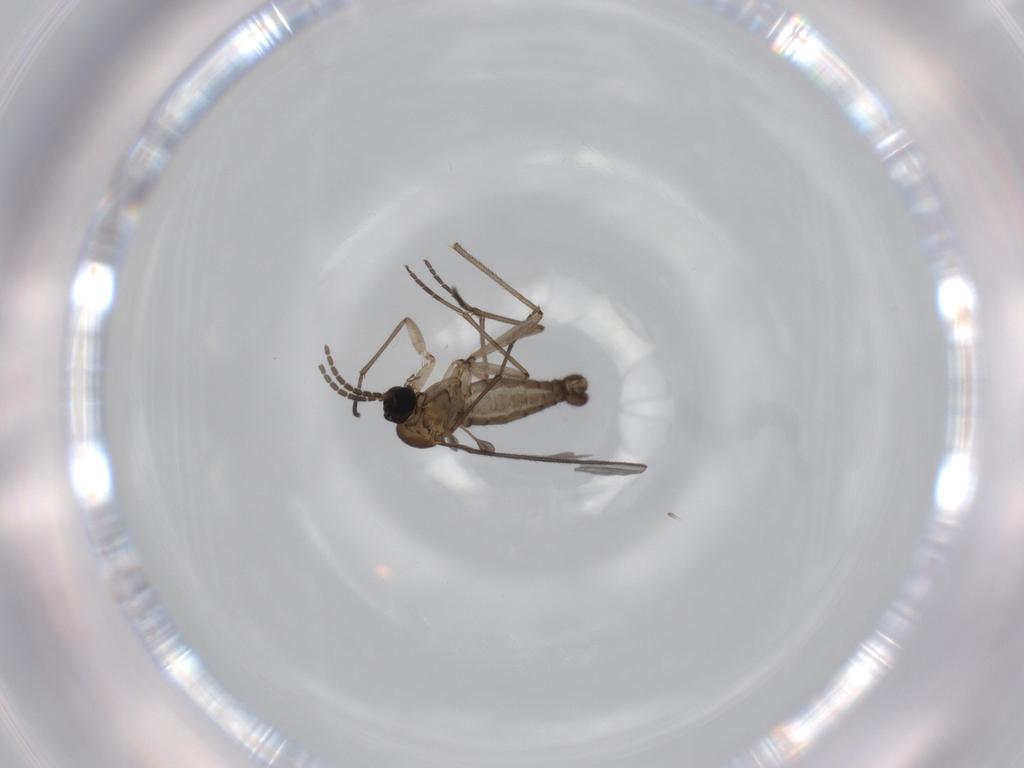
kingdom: Animalia
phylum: Arthropoda
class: Insecta
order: Diptera
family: Sciaridae
